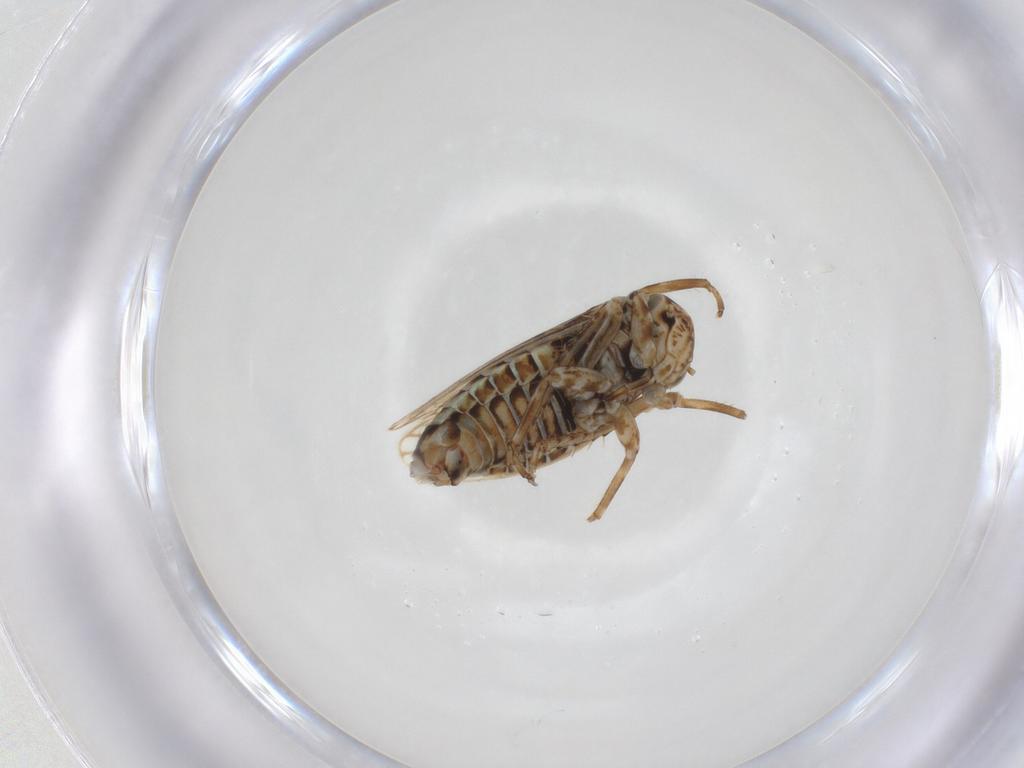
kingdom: Animalia
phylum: Arthropoda
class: Insecta
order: Hemiptera
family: Cicadellidae
